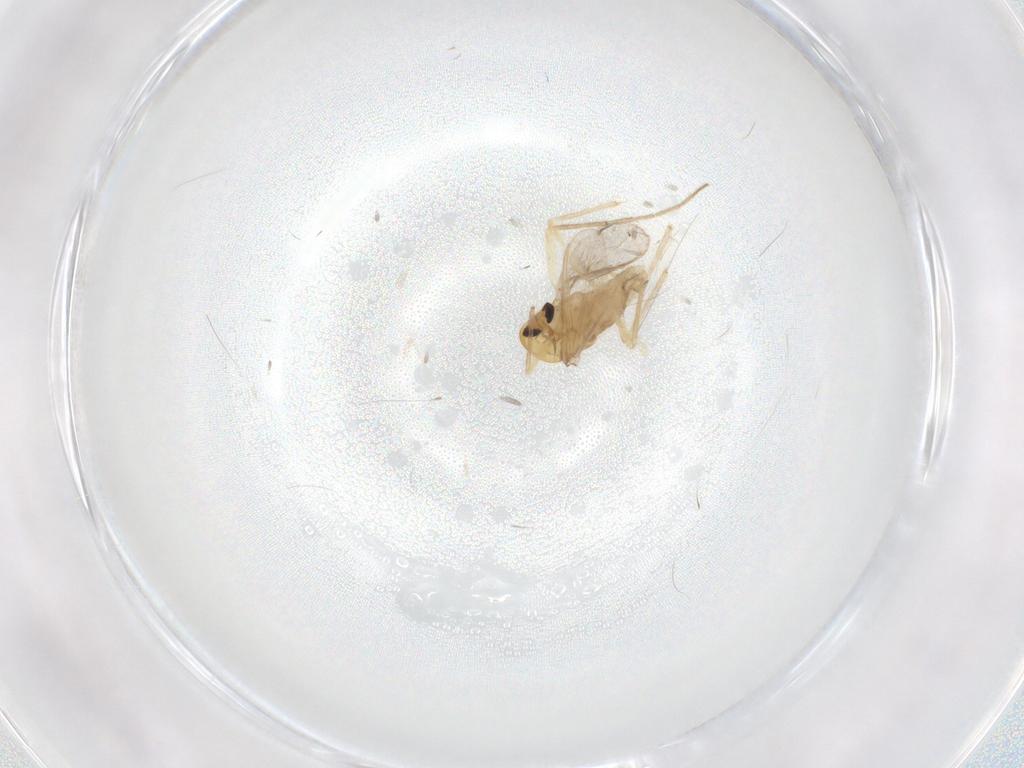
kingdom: Animalia
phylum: Arthropoda
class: Insecta
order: Diptera
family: Chironomidae
